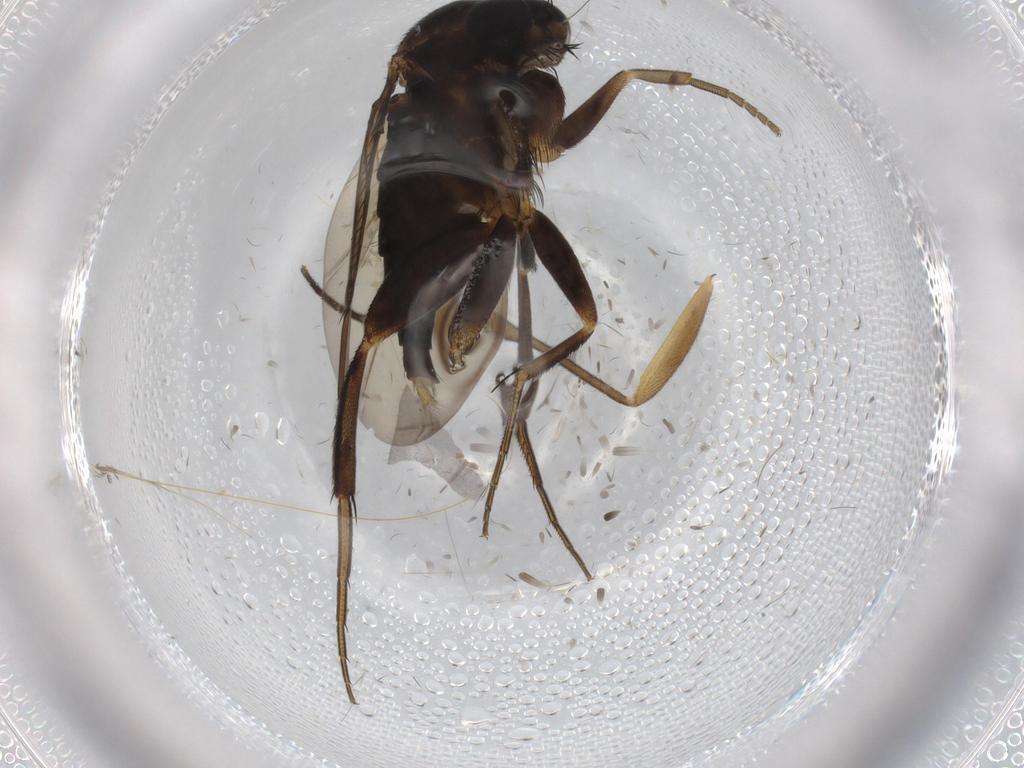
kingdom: Animalia
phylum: Arthropoda
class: Insecta
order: Diptera
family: Drosophilidae
